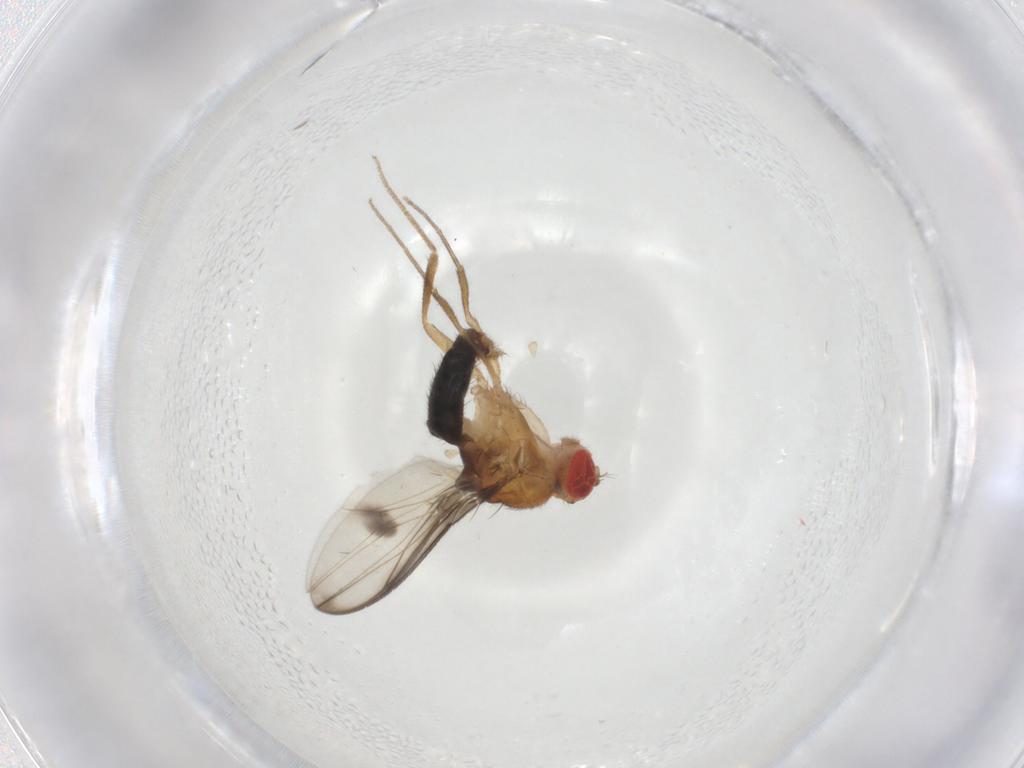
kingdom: Animalia
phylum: Arthropoda
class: Insecta
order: Diptera
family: Drosophilidae
